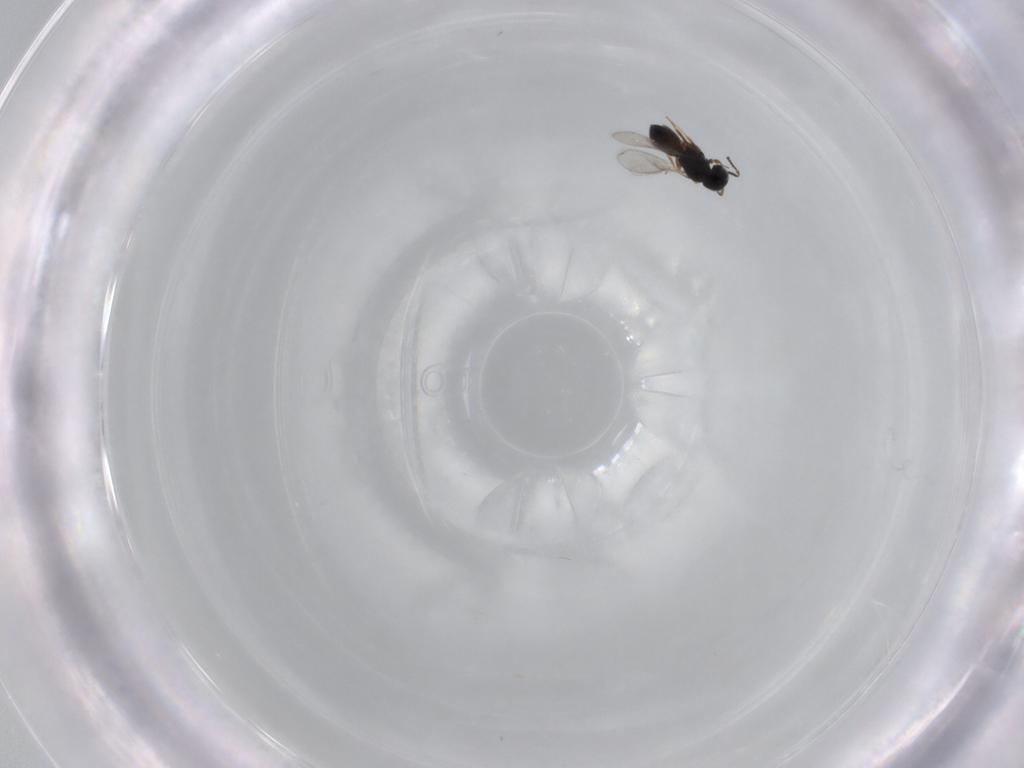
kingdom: Animalia
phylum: Arthropoda
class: Insecta
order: Hymenoptera
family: Scelionidae
